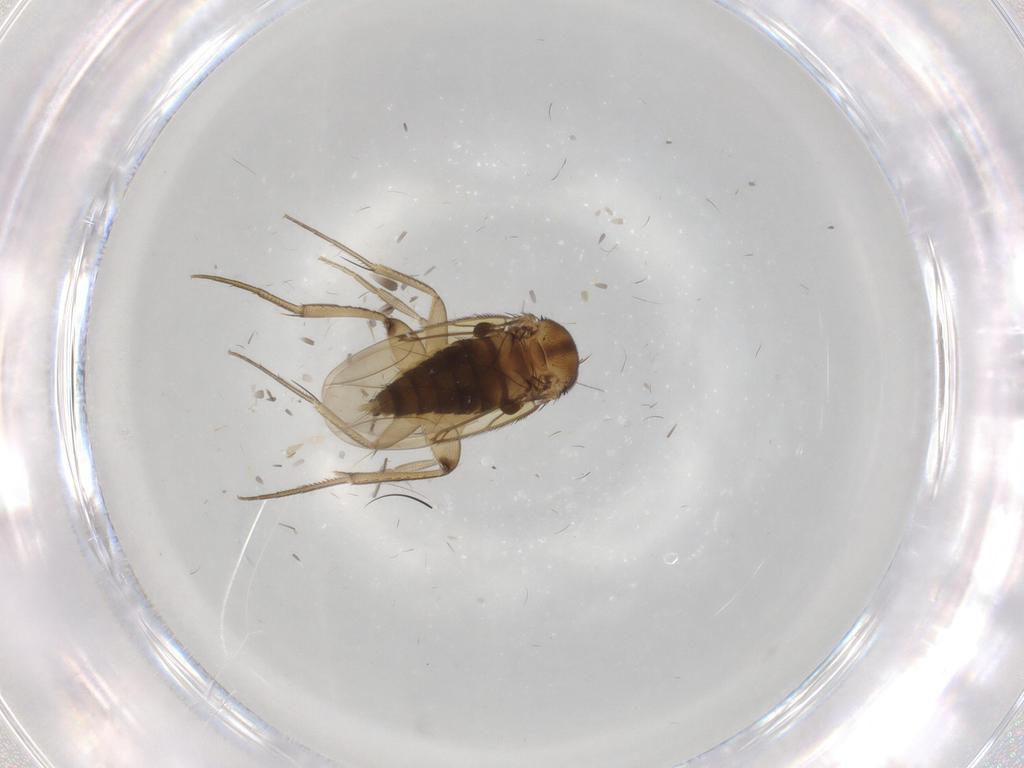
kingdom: Animalia
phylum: Arthropoda
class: Insecta
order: Diptera
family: Phoridae
